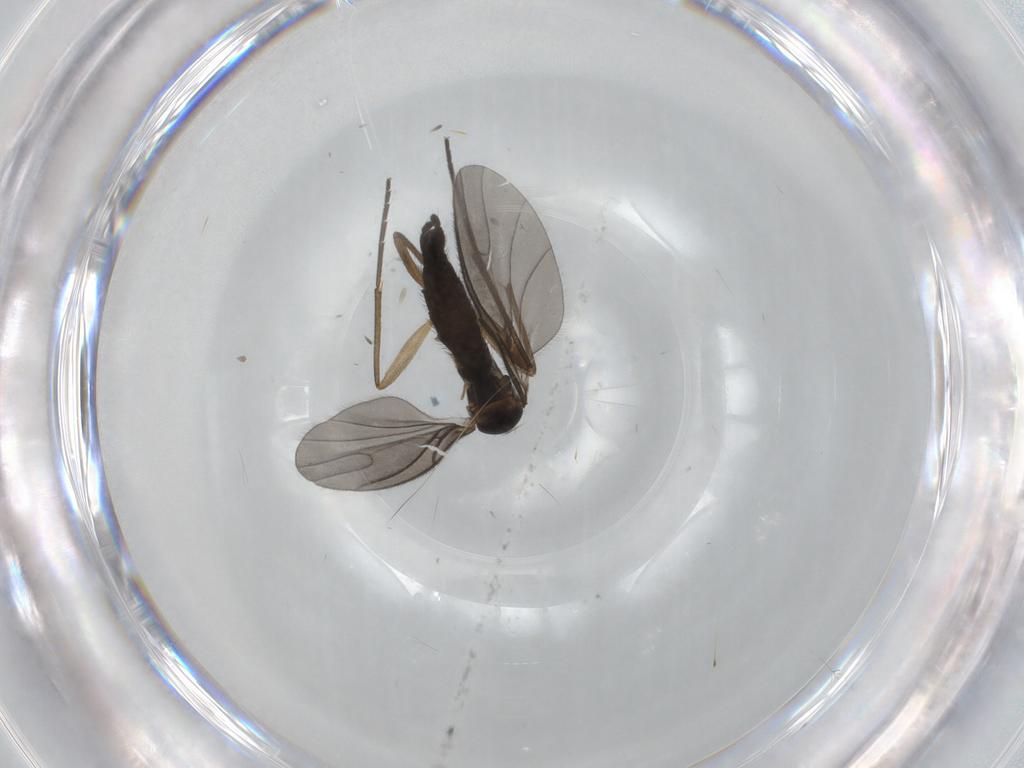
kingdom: Animalia
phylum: Arthropoda
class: Insecta
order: Diptera
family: Sciaridae
